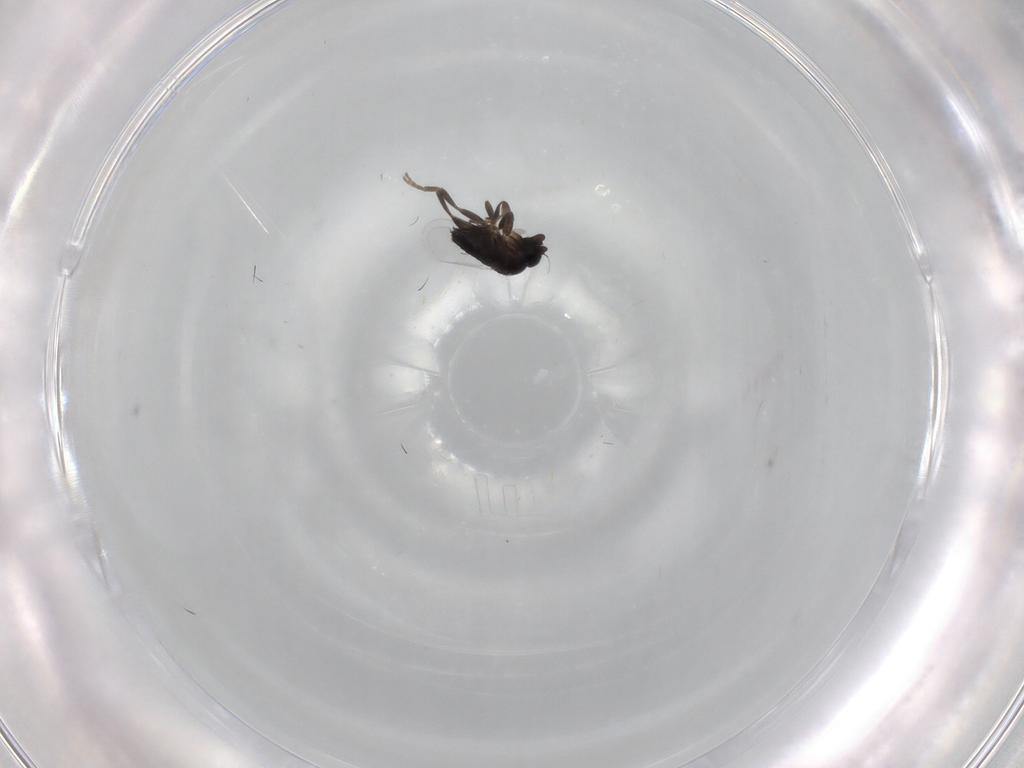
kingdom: Animalia
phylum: Arthropoda
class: Insecta
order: Diptera
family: Phoridae
